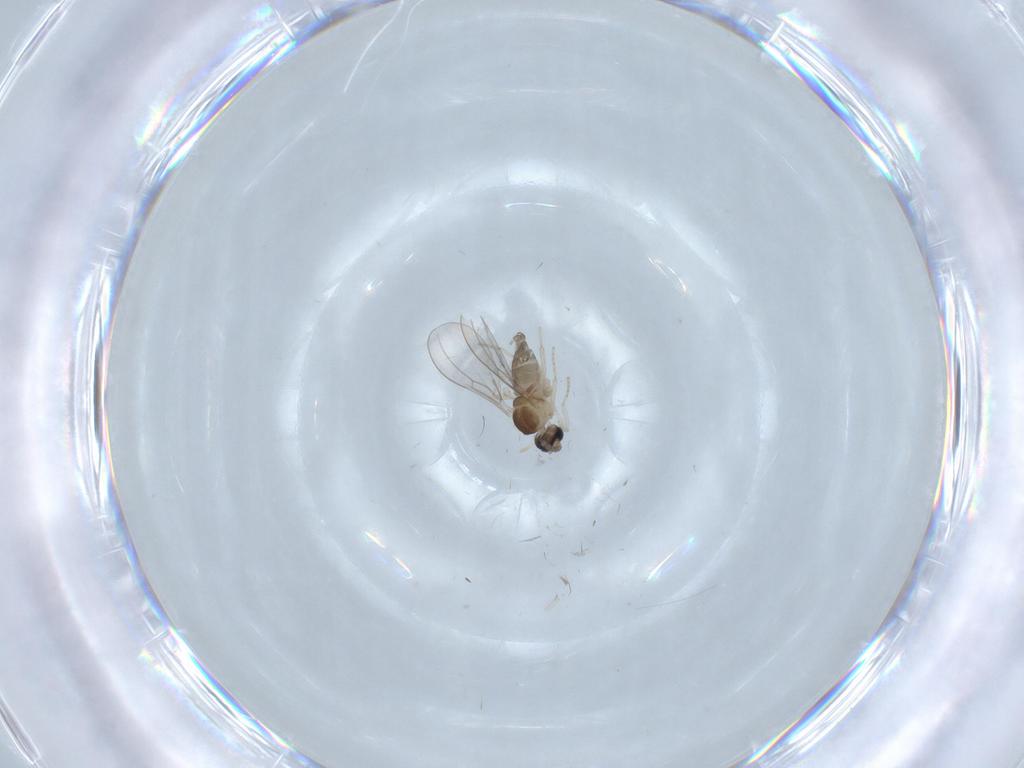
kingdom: Animalia
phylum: Arthropoda
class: Insecta
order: Diptera
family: Cecidomyiidae
